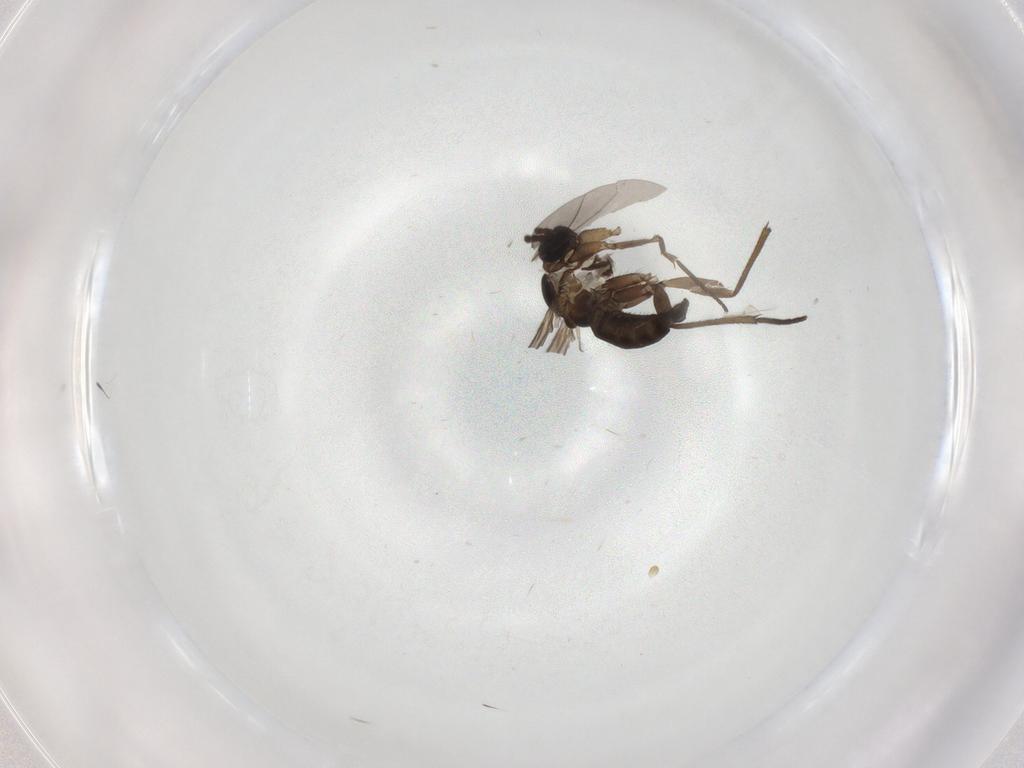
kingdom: Animalia
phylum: Arthropoda
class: Insecta
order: Diptera
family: Sciaridae
